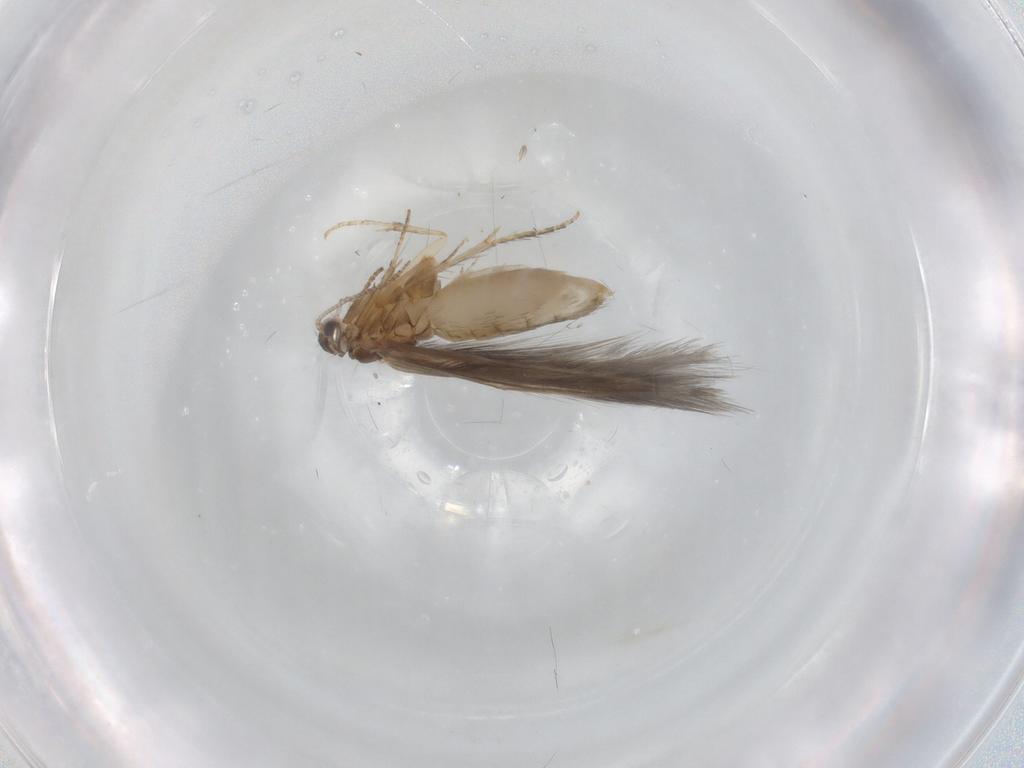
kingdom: Animalia
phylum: Arthropoda
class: Insecta
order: Trichoptera
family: Hydroptilidae
